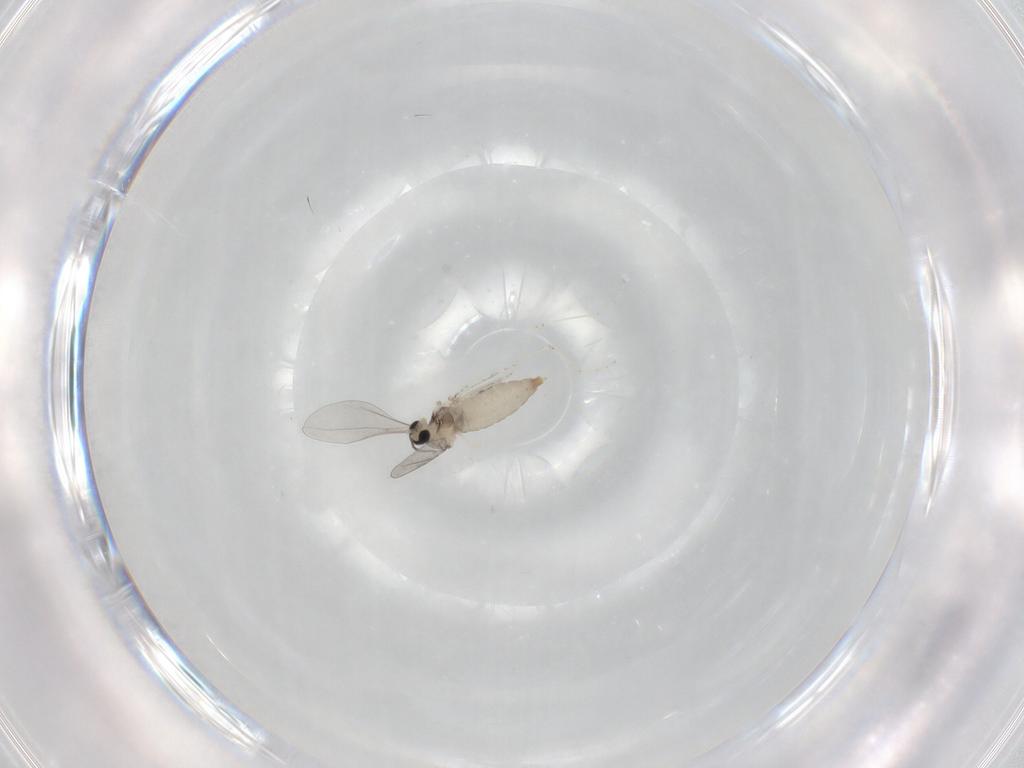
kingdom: Animalia
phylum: Arthropoda
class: Insecta
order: Diptera
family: Cecidomyiidae
